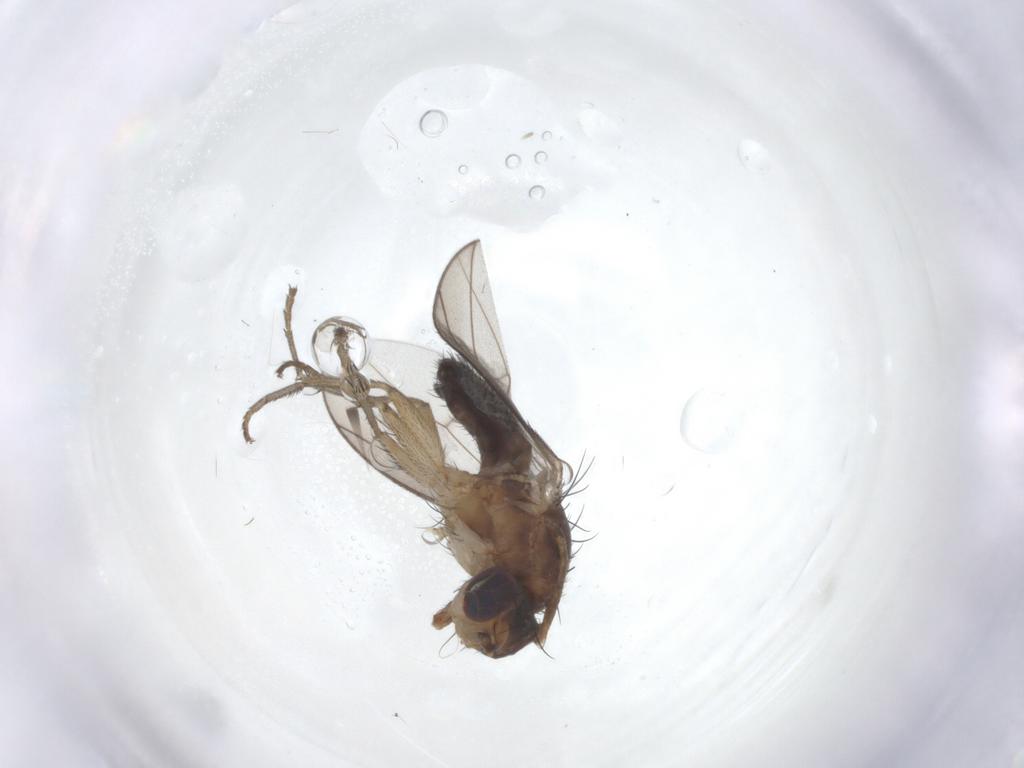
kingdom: Animalia
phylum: Arthropoda
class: Insecta
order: Diptera
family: Heleomyzidae
